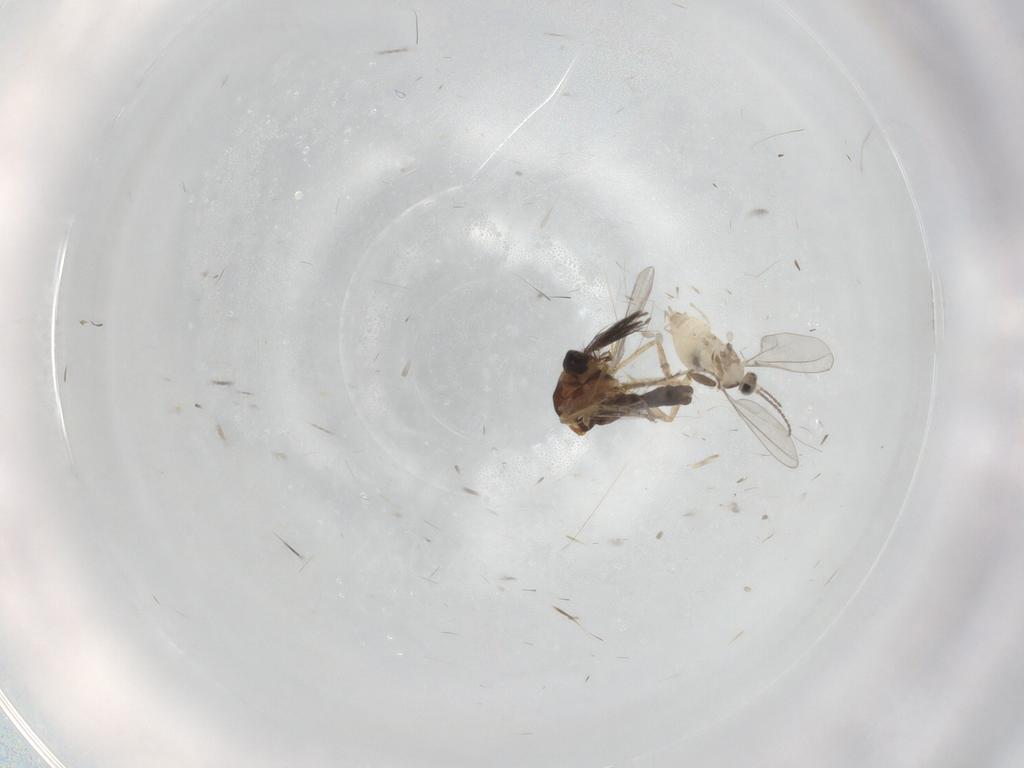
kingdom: Animalia
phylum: Arthropoda
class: Insecta
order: Diptera
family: Cecidomyiidae
